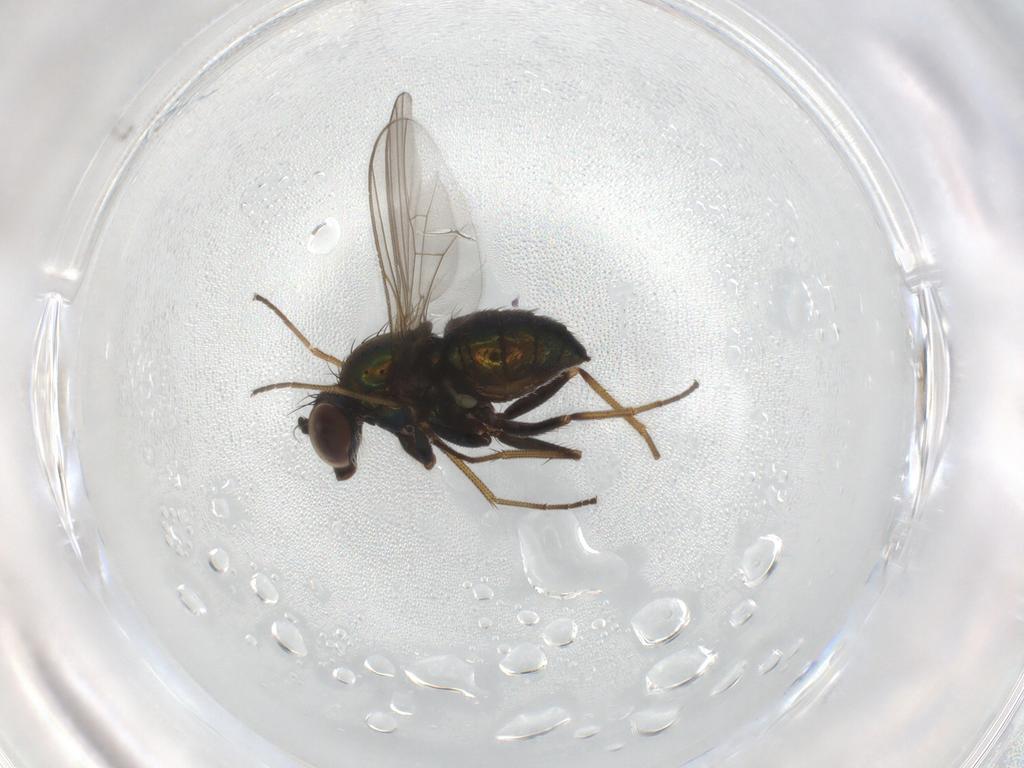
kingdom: Animalia
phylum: Arthropoda
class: Insecta
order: Diptera
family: Dolichopodidae
